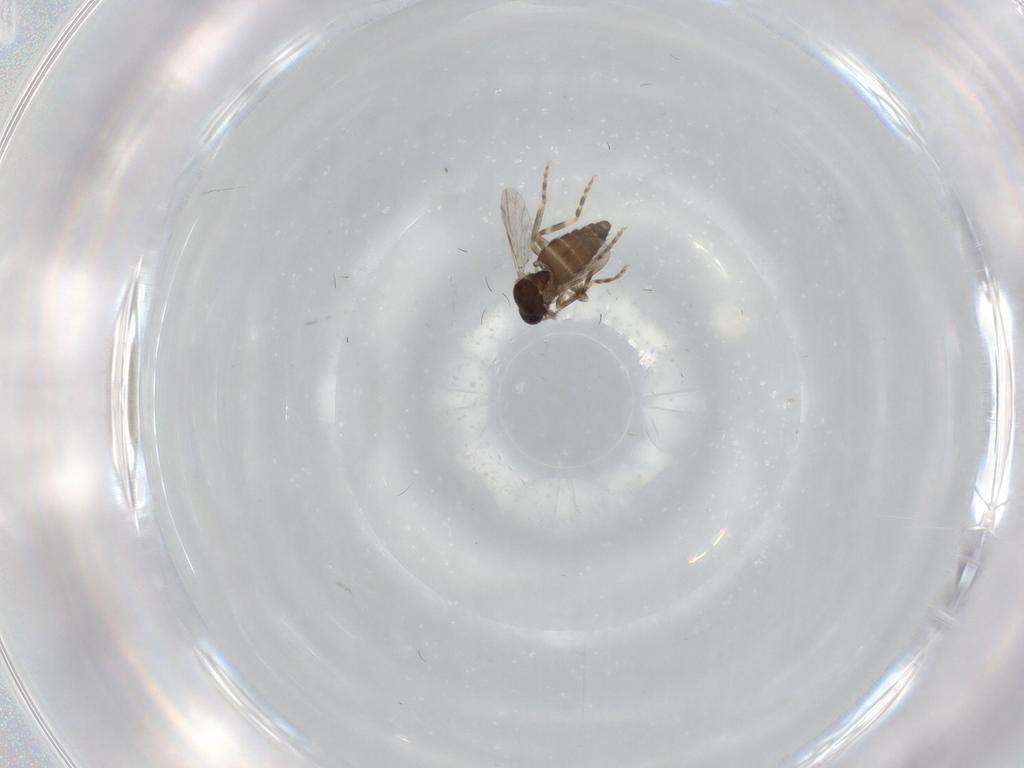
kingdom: Animalia
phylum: Arthropoda
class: Insecta
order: Diptera
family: Ceratopogonidae
